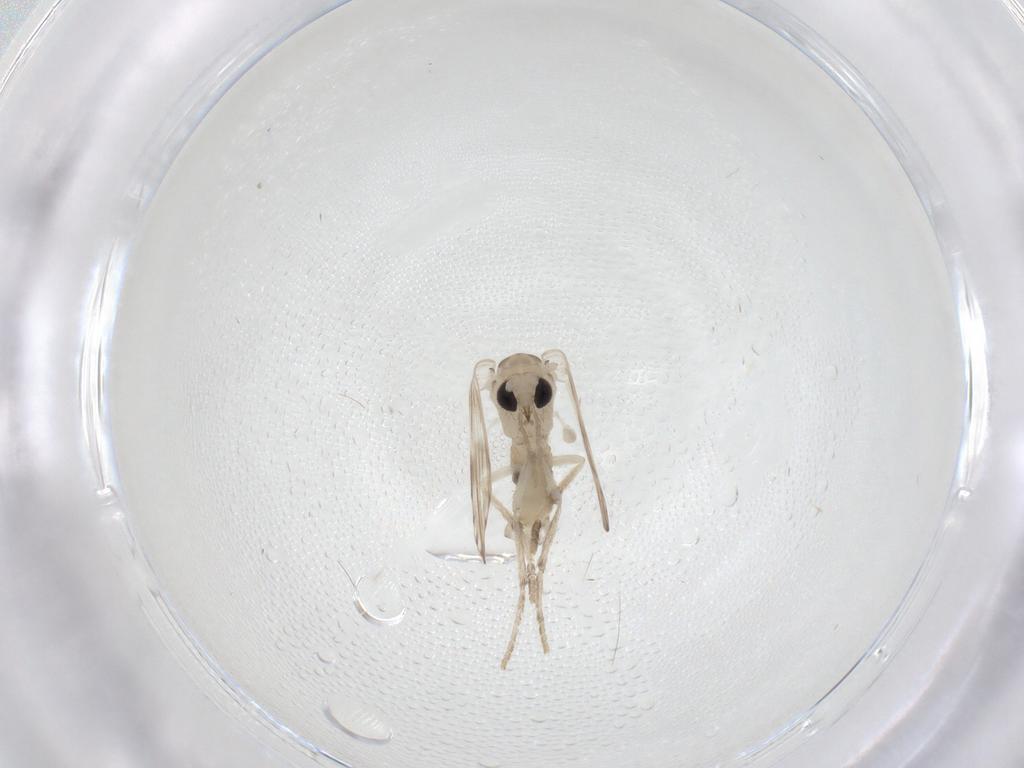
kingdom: Animalia
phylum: Arthropoda
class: Insecta
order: Diptera
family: Psychodidae
